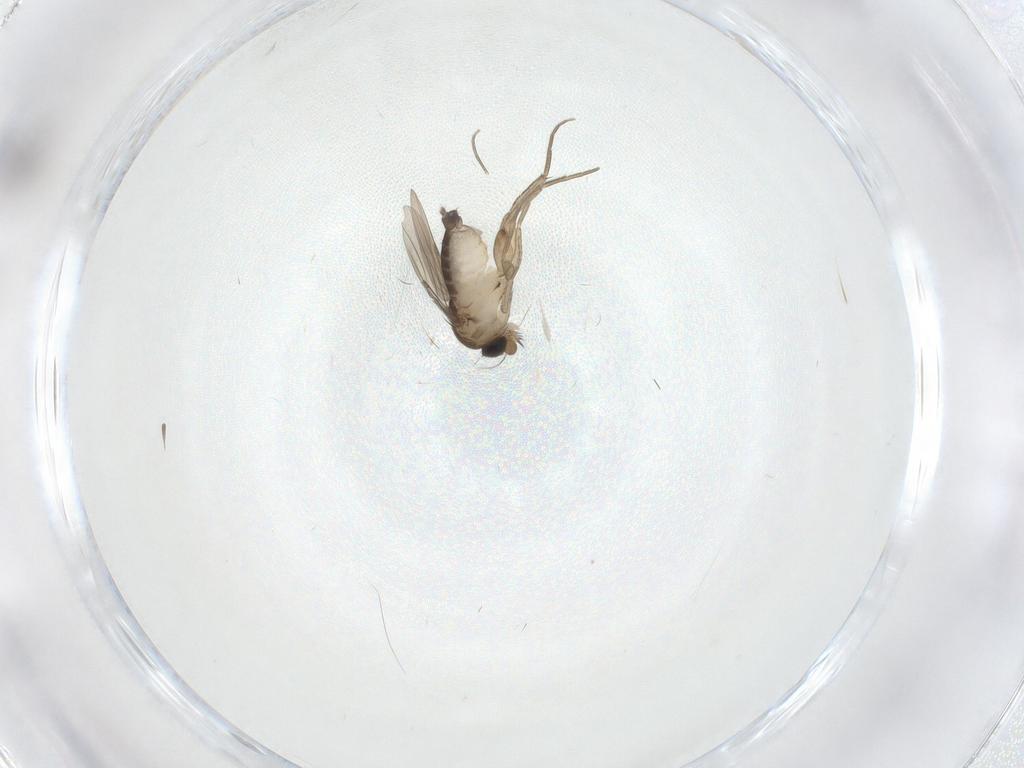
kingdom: Animalia
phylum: Arthropoda
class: Insecta
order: Diptera
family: Phoridae
